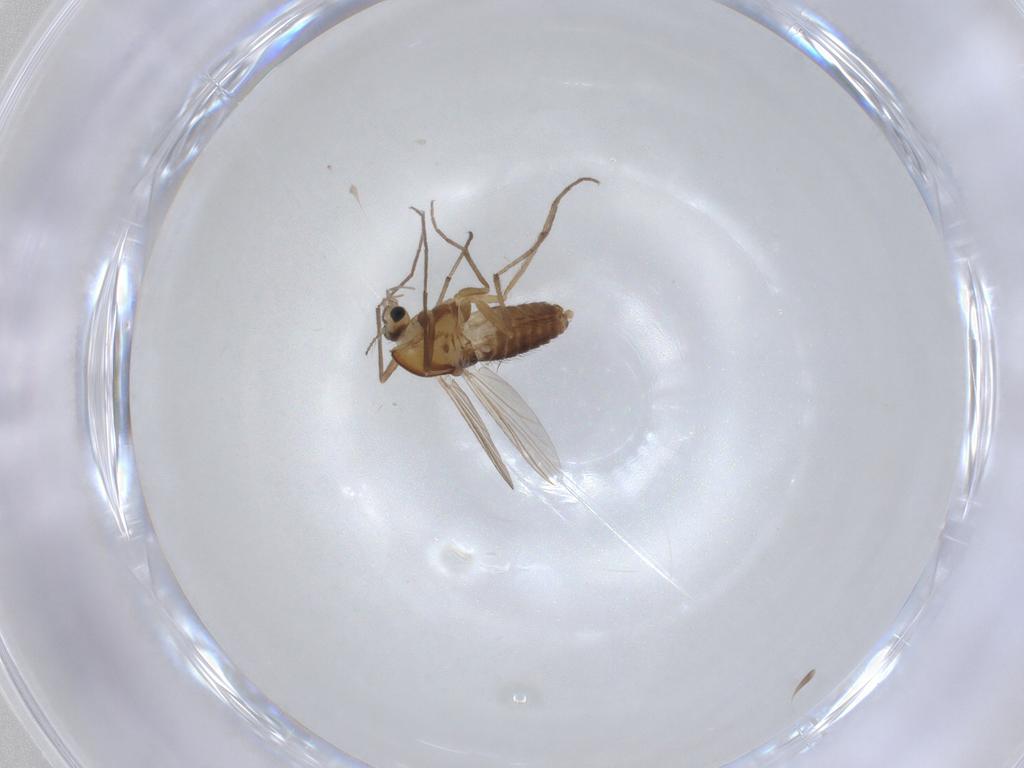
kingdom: Animalia
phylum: Arthropoda
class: Insecta
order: Diptera
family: Chironomidae
